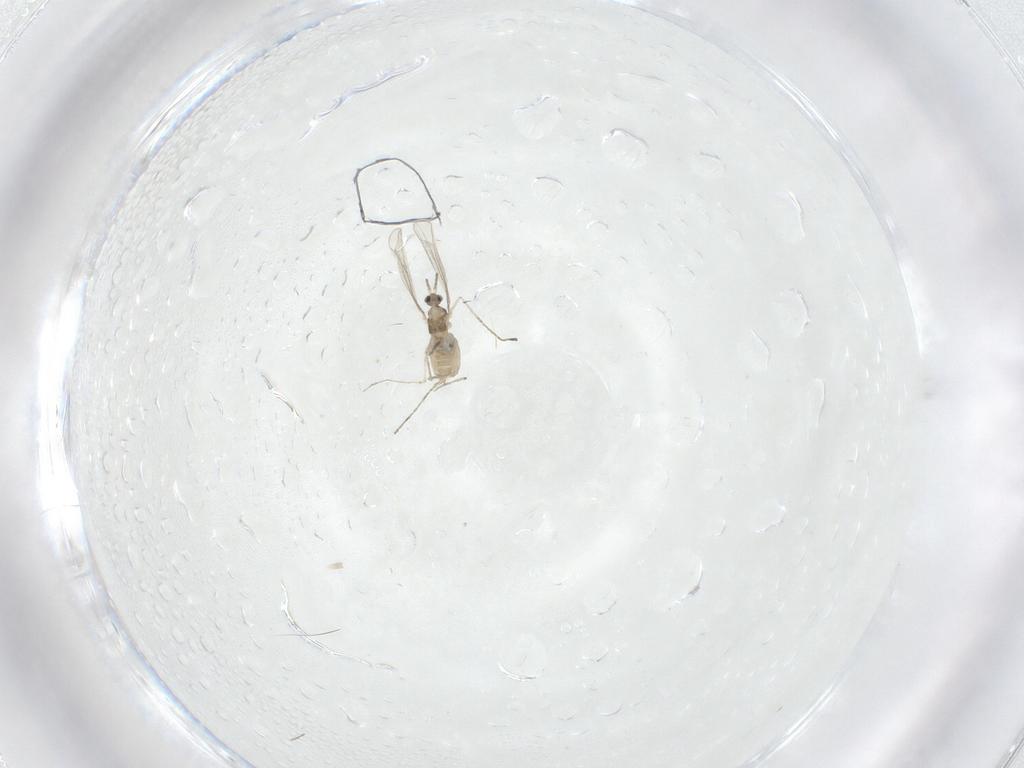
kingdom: Animalia
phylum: Arthropoda
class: Insecta
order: Diptera
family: Cecidomyiidae
